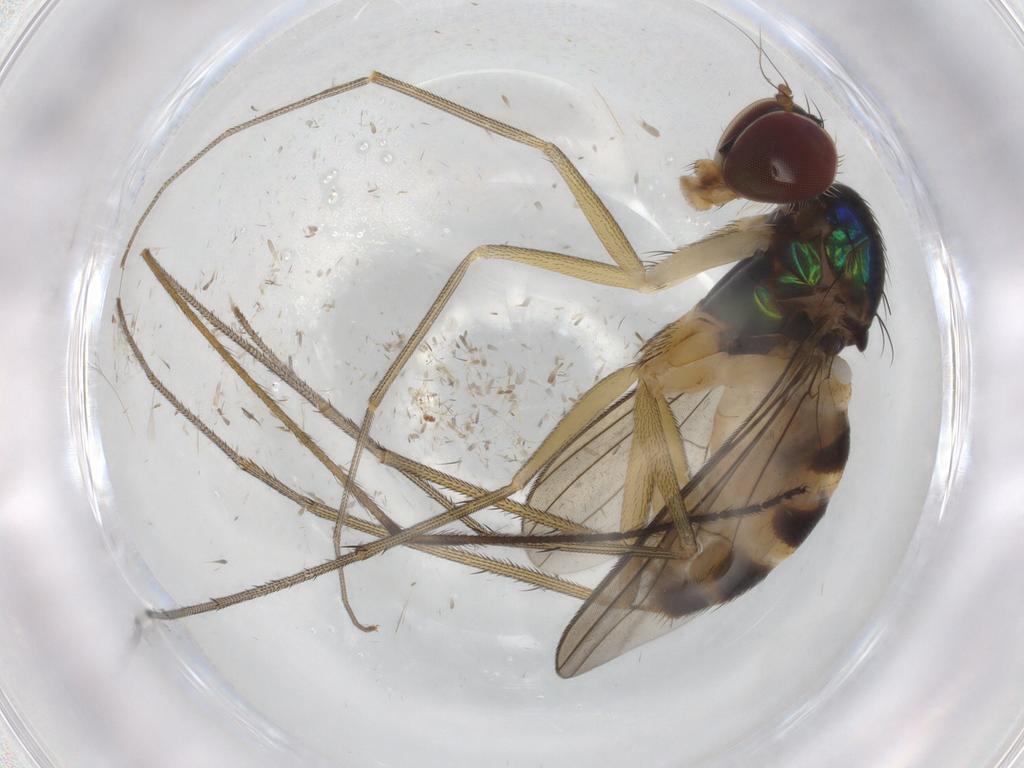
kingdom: Animalia
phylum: Arthropoda
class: Insecta
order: Diptera
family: Dolichopodidae
